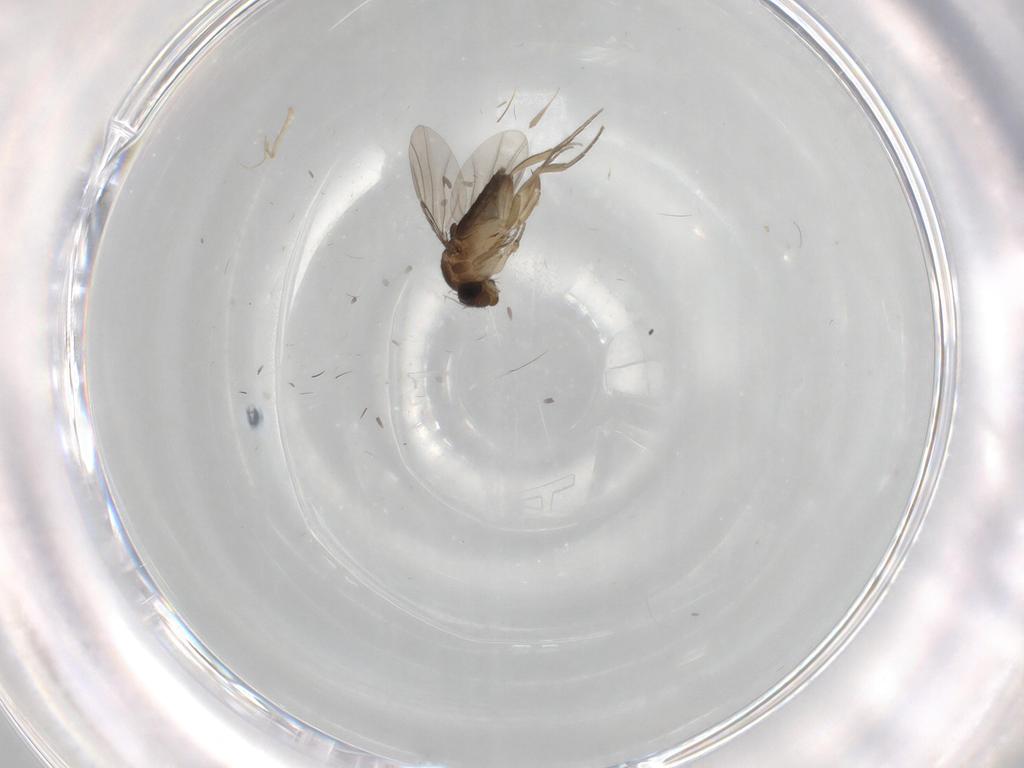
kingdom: Animalia
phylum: Arthropoda
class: Insecta
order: Diptera
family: Phoridae
